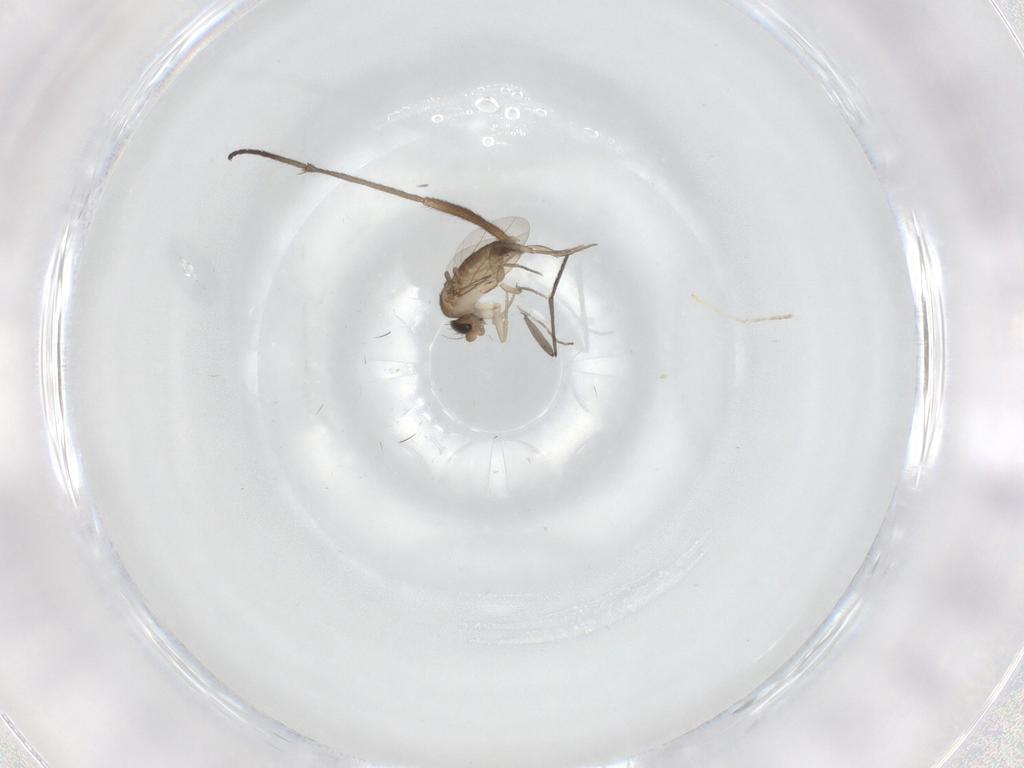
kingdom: Animalia
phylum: Arthropoda
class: Insecta
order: Diptera
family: Phoridae
